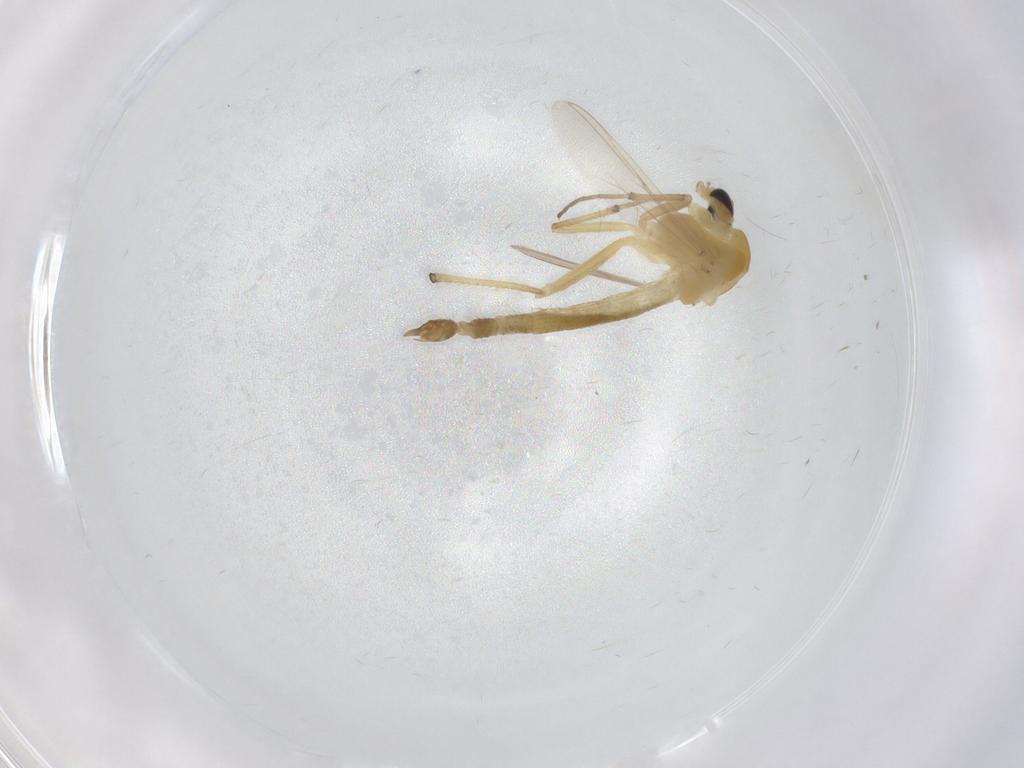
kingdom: Animalia
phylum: Arthropoda
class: Insecta
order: Diptera
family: Chironomidae
